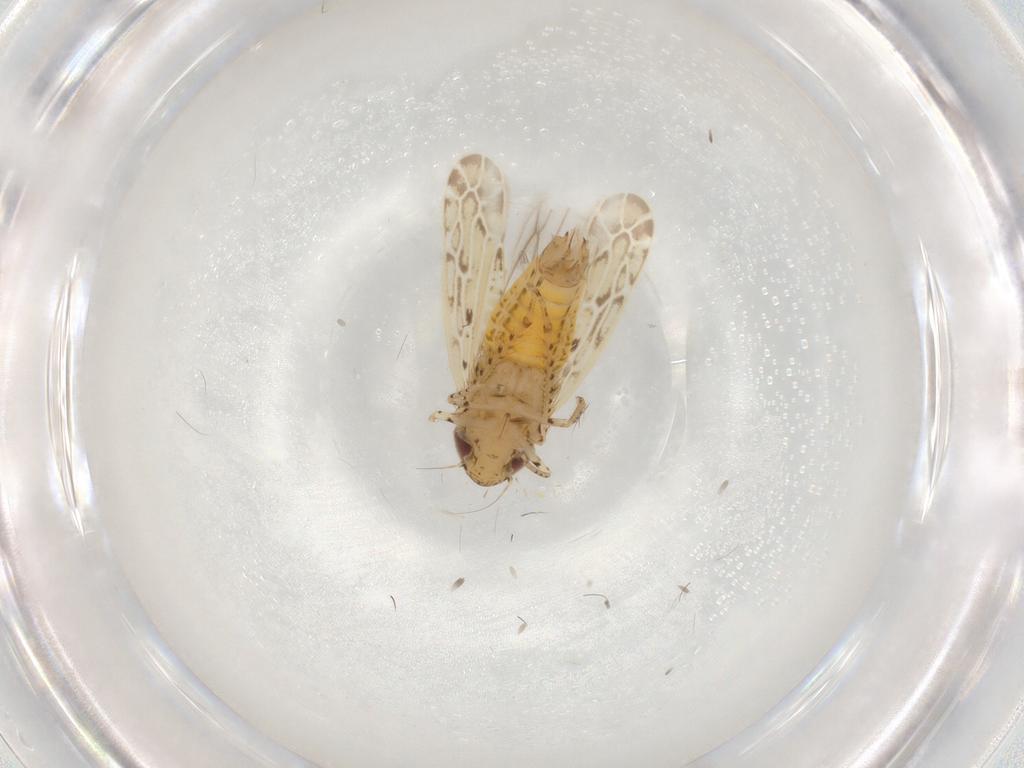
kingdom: Animalia
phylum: Arthropoda
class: Insecta
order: Hemiptera
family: Cicadellidae
